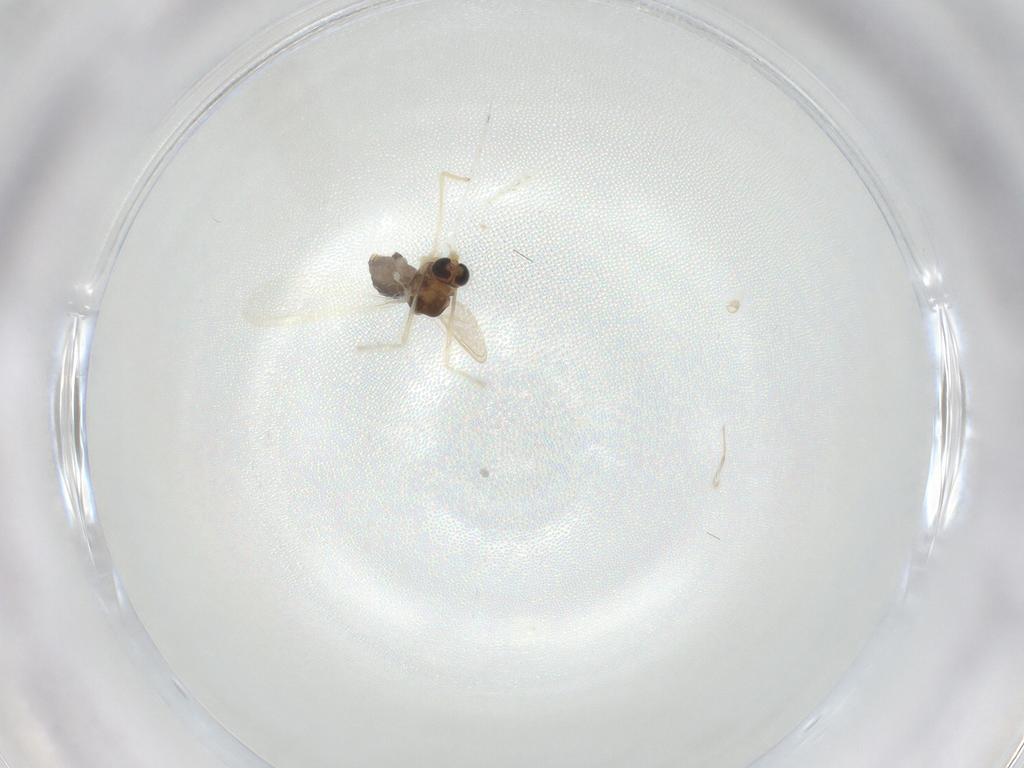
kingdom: Animalia
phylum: Arthropoda
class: Insecta
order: Diptera
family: Chironomidae
